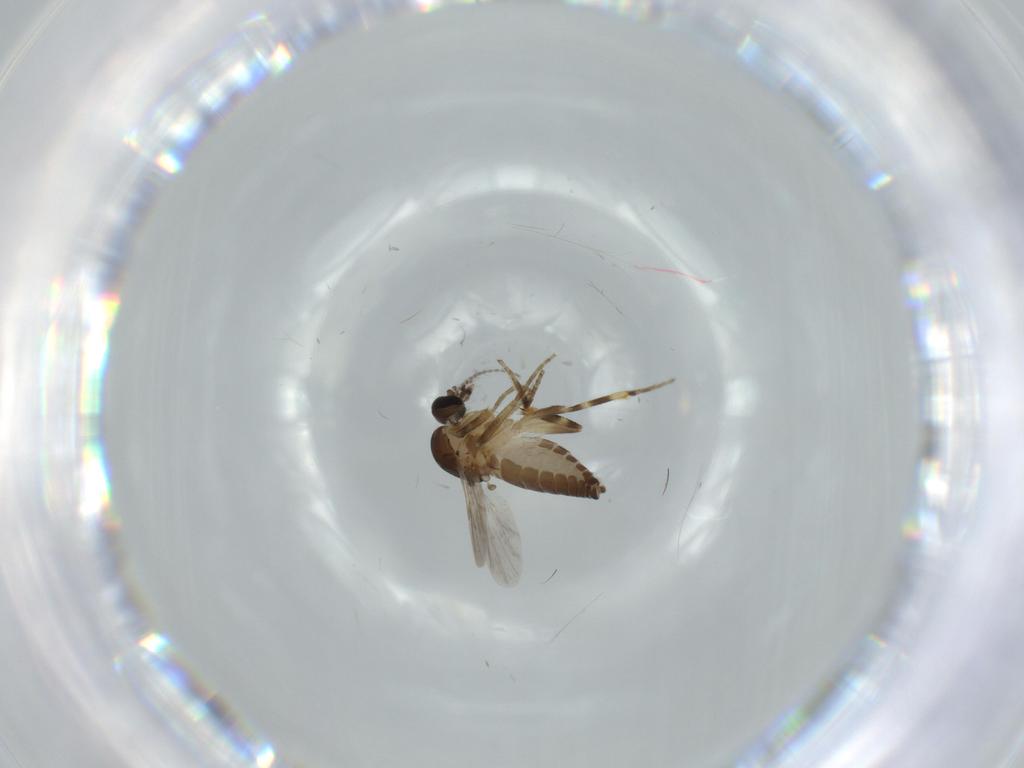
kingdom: Animalia
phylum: Arthropoda
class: Insecta
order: Diptera
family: Ceratopogonidae
